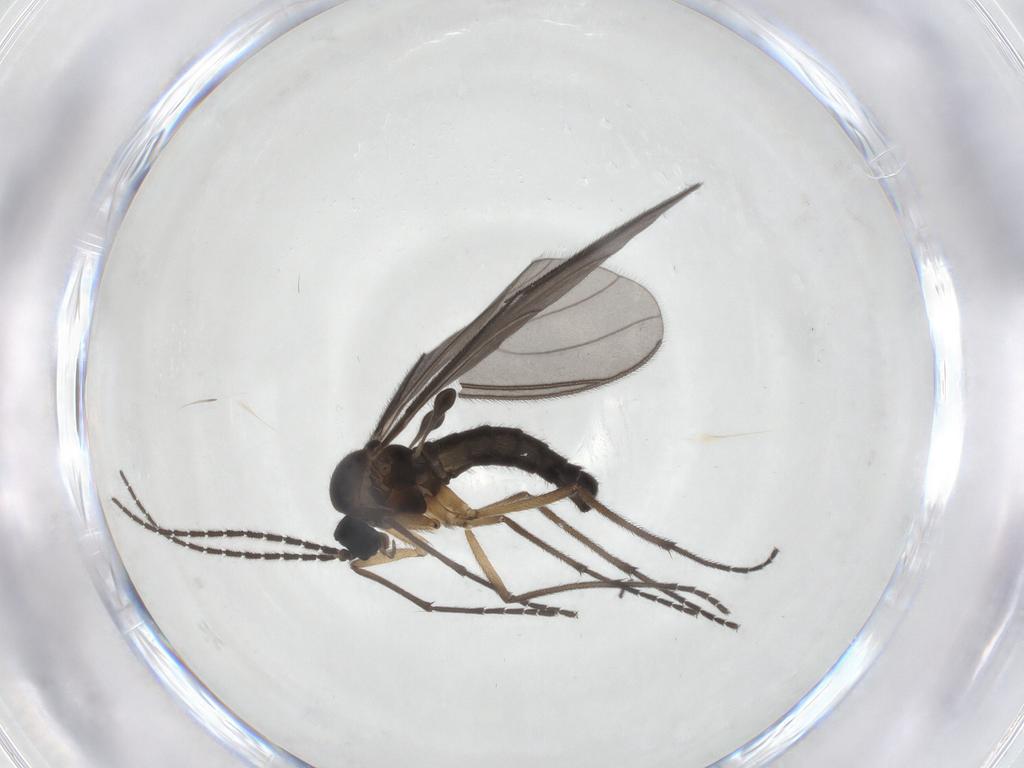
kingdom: Animalia
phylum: Arthropoda
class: Insecta
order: Diptera
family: Sciaridae
